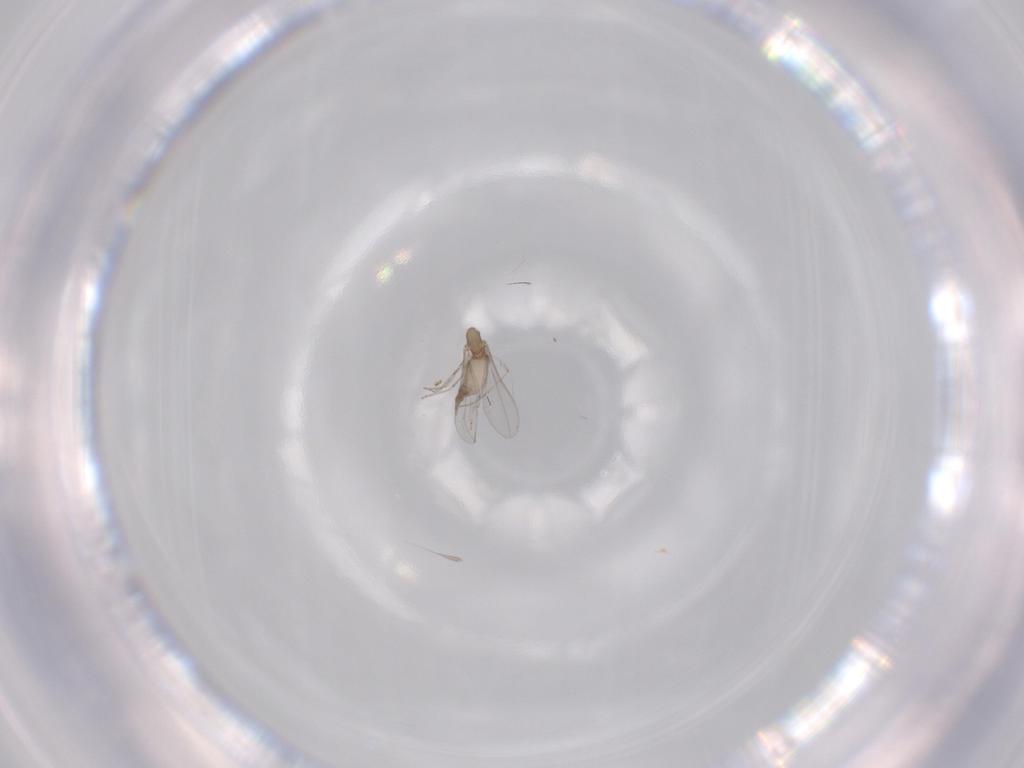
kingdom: Animalia
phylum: Arthropoda
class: Insecta
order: Diptera
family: Cecidomyiidae
